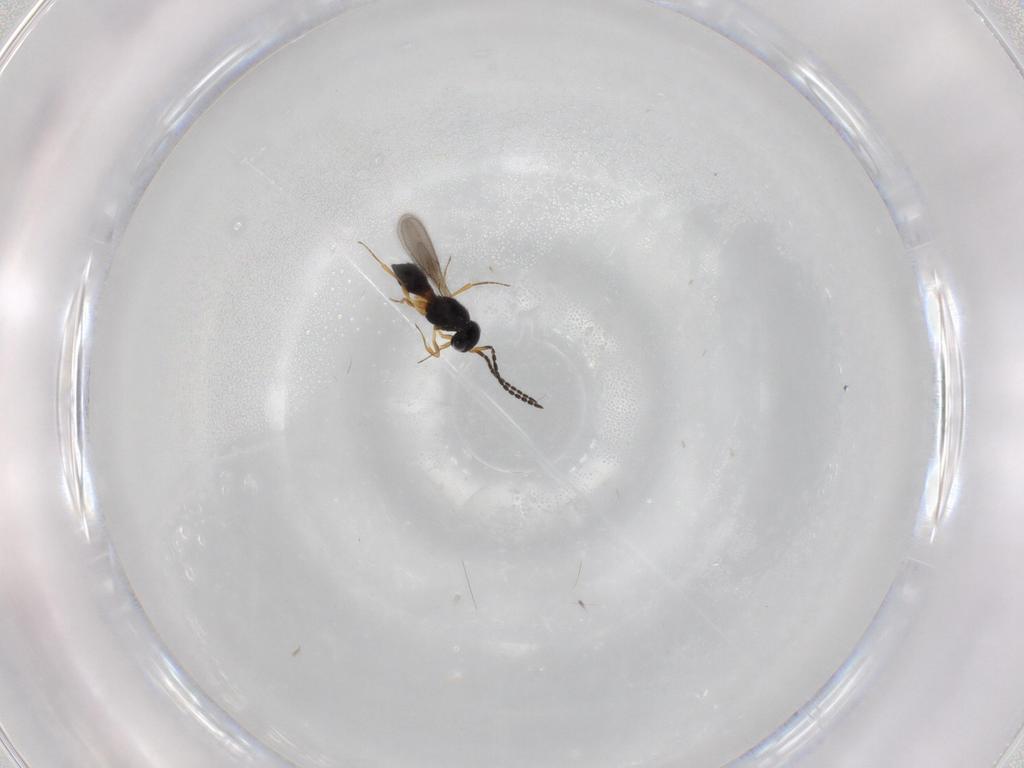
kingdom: Animalia
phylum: Arthropoda
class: Insecta
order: Hymenoptera
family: Scelionidae
